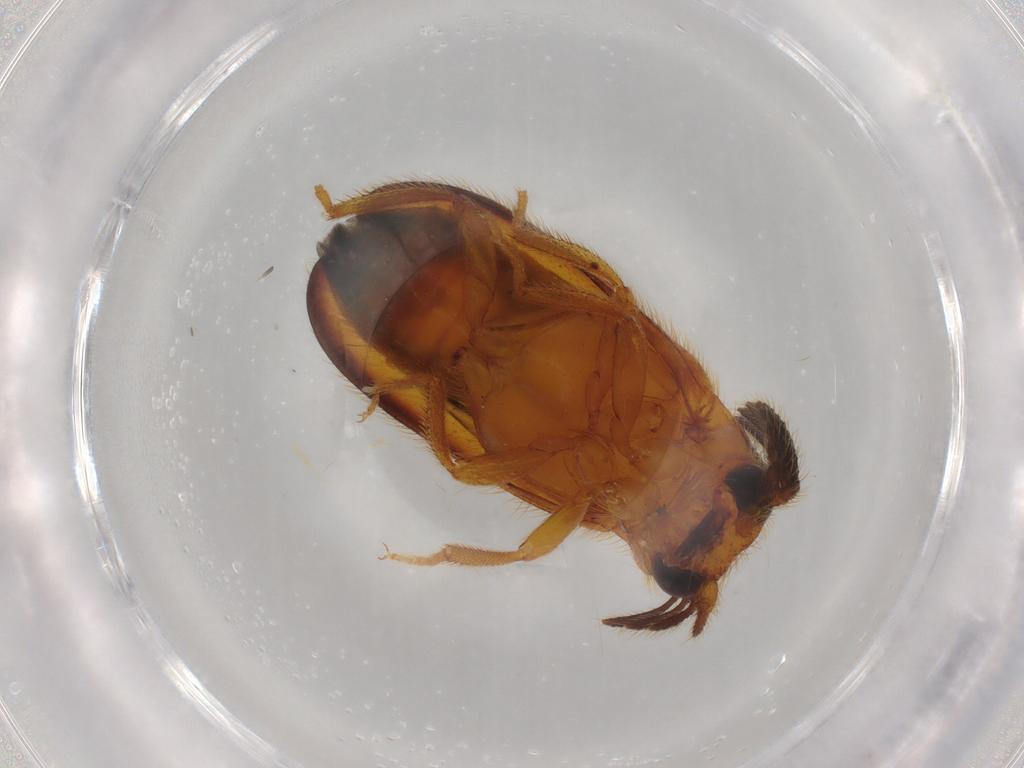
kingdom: Animalia
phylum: Arthropoda
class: Insecta
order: Coleoptera
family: Elateridae
